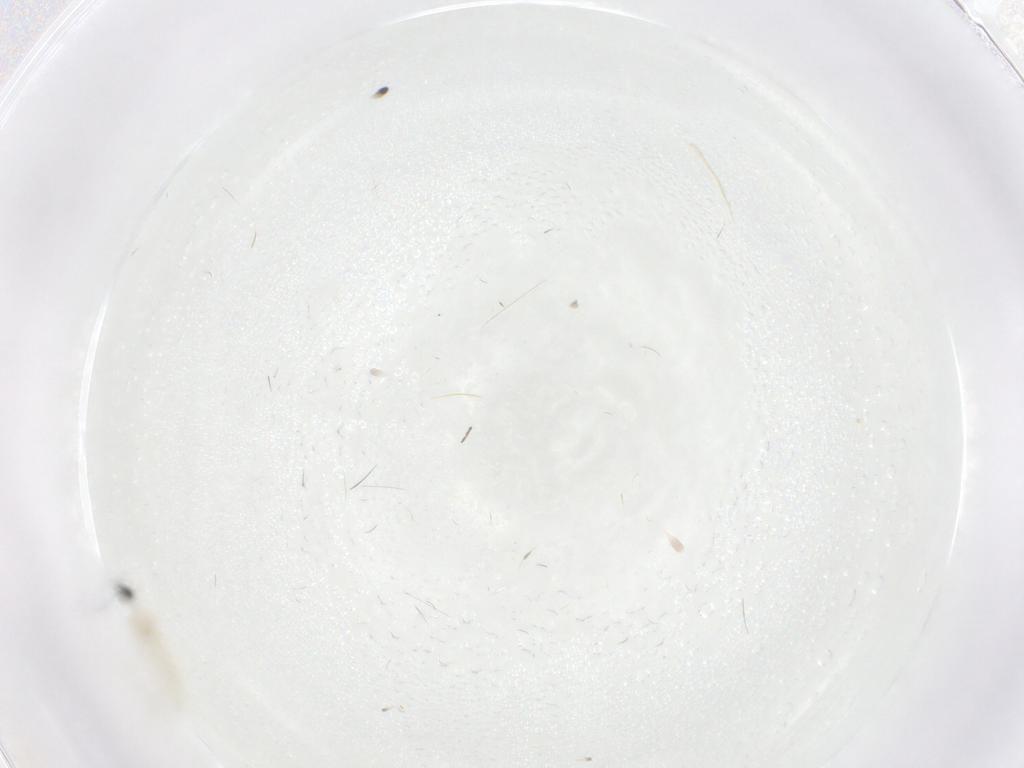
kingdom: Animalia
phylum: Arthropoda
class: Insecta
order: Diptera
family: Cecidomyiidae
